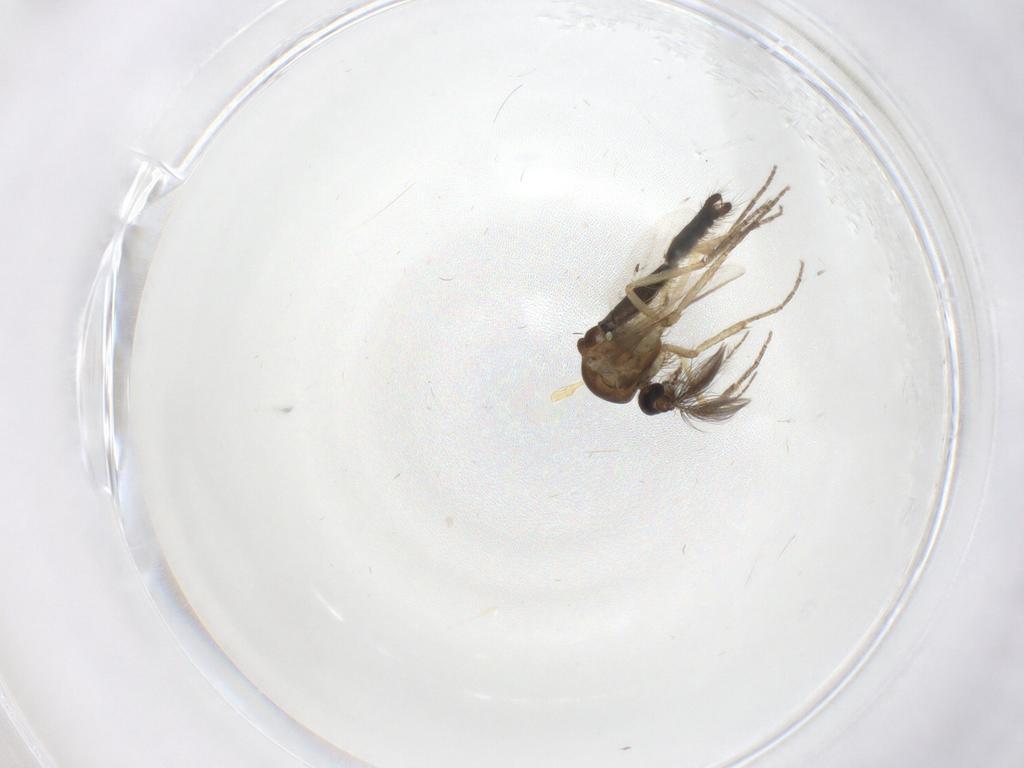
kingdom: Animalia
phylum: Arthropoda
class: Insecta
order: Diptera
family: Ceratopogonidae
